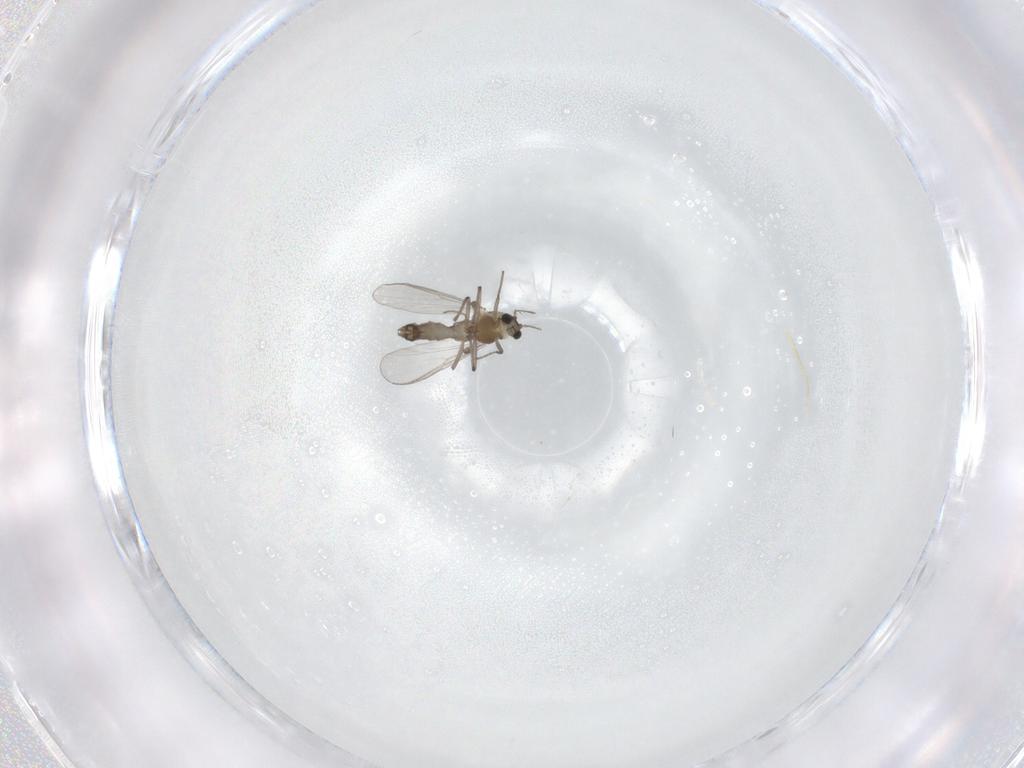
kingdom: Animalia
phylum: Arthropoda
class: Insecta
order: Diptera
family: Chironomidae
